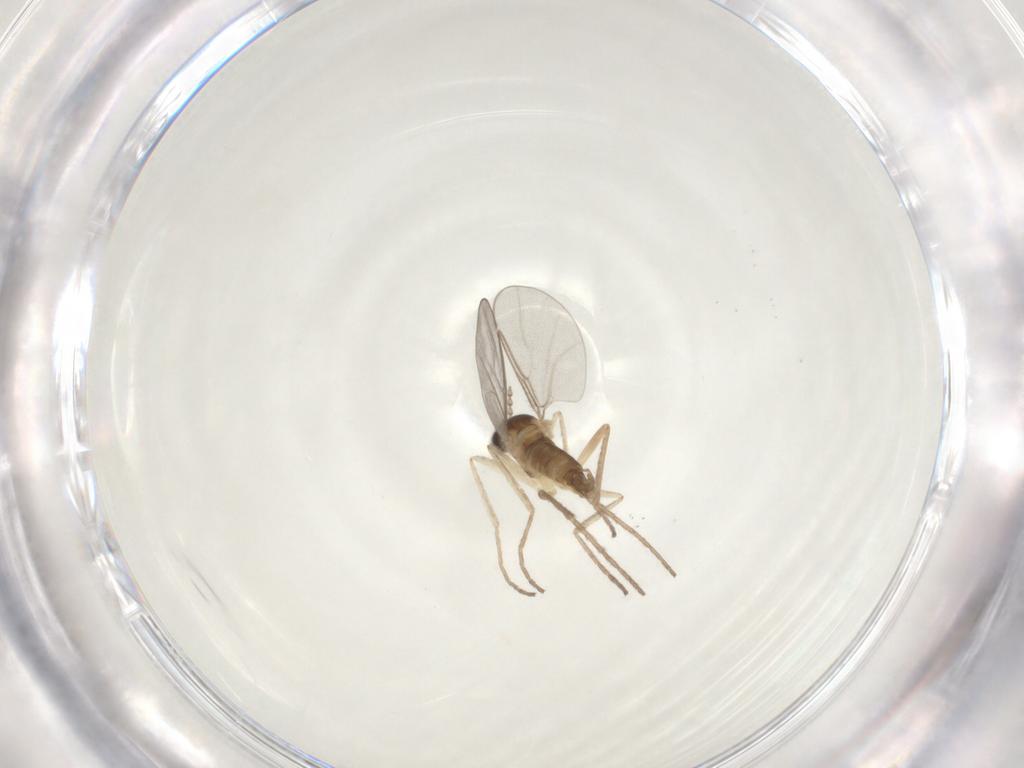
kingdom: Animalia
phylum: Arthropoda
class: Insecta
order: Diptera
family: Cecidomyiidae
